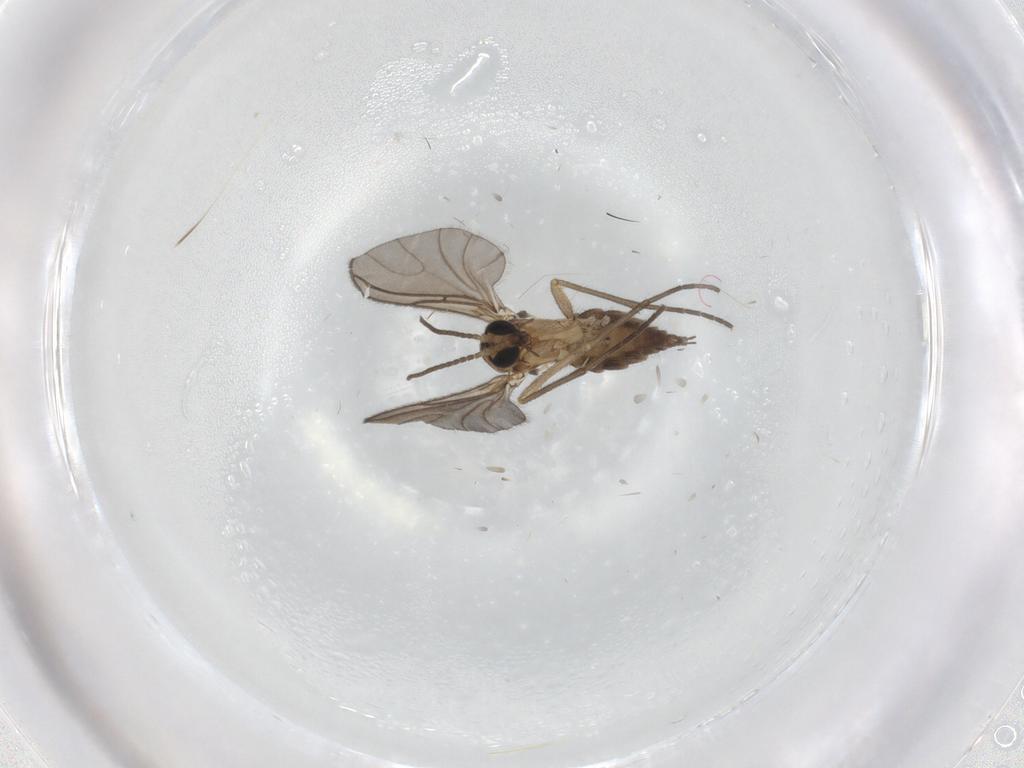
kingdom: Animalia
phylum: Arthropoda
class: Insecta
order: Diptera
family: Sciaridae
